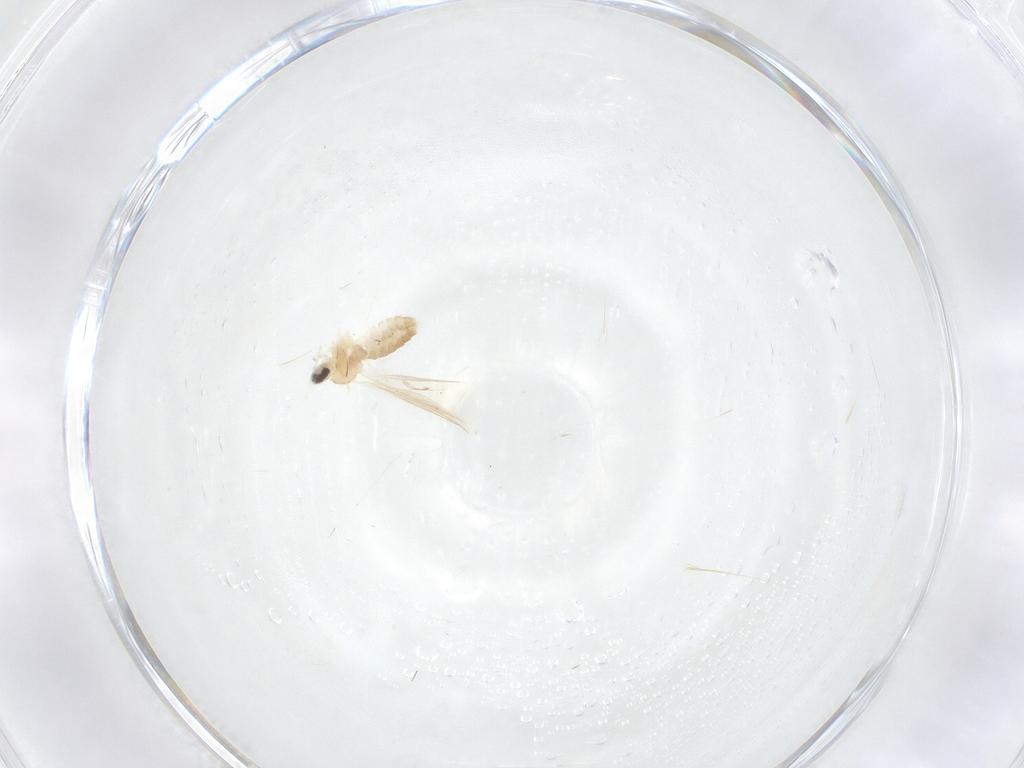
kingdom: Animalia
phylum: Arthropoda
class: Insecta
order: Diptera
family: Cecidomyiidae
